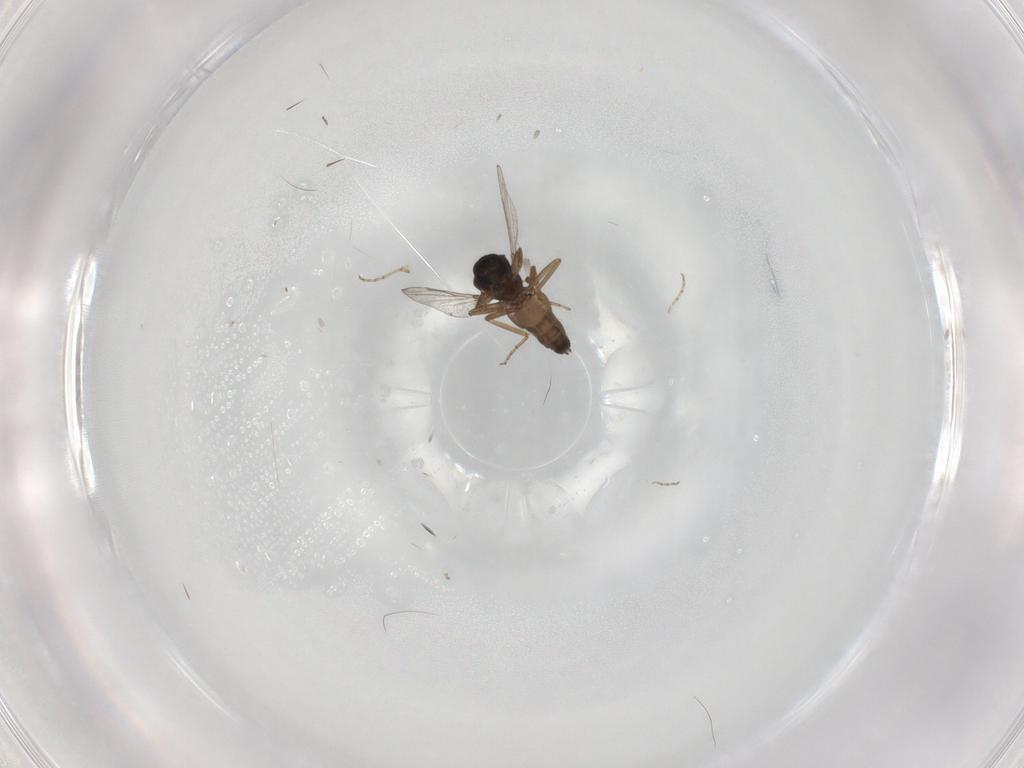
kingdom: Animalia
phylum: Arthropoda
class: Insecta
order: Diptera
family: Ceratopogonidae
